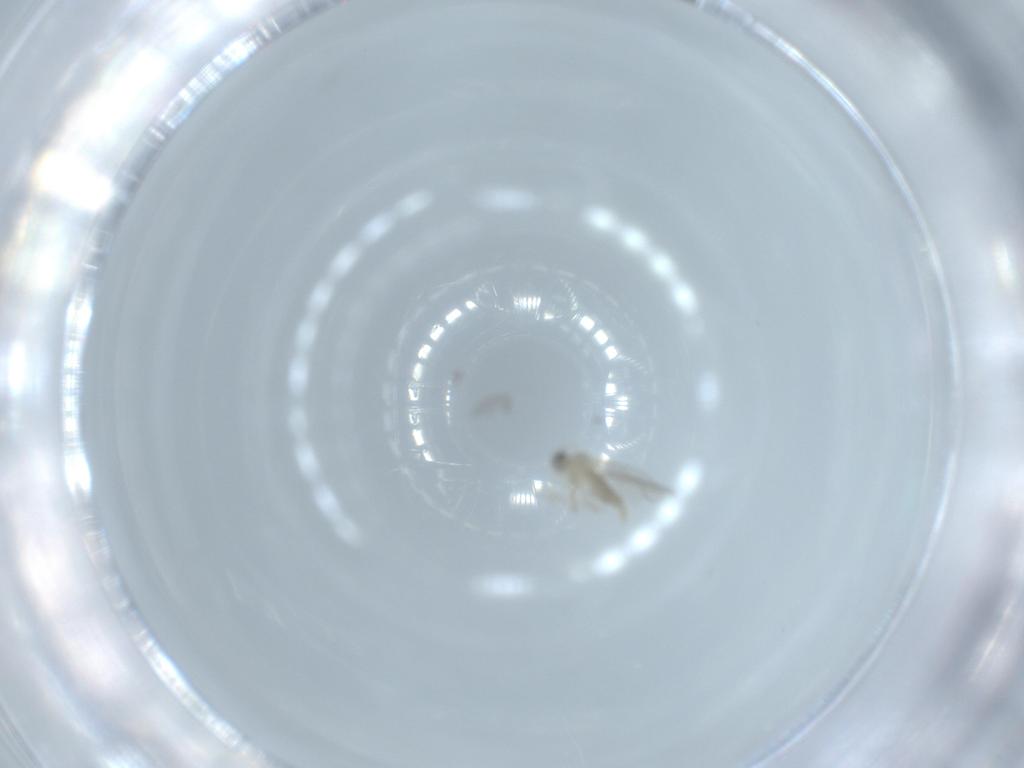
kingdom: Animalia
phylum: Arthropoda
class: Insecta
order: Diptera
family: Cecidomyiidae
